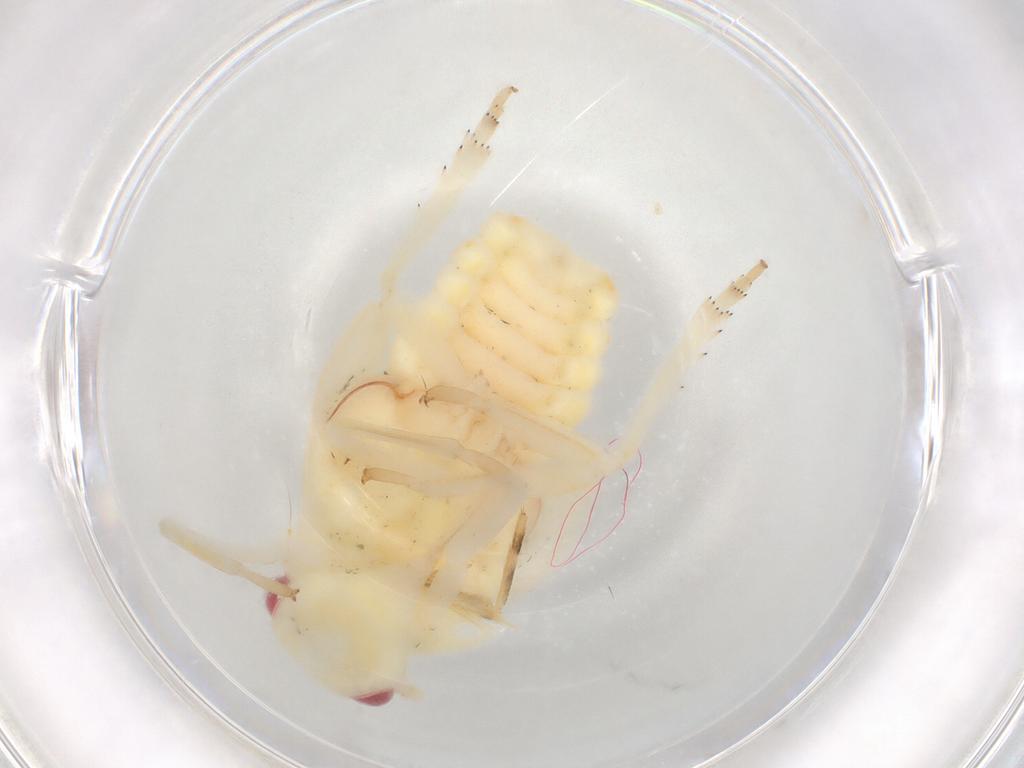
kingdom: Animalia
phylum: Arthropoda
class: Insecta
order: Hemiptera
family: Flatidae
